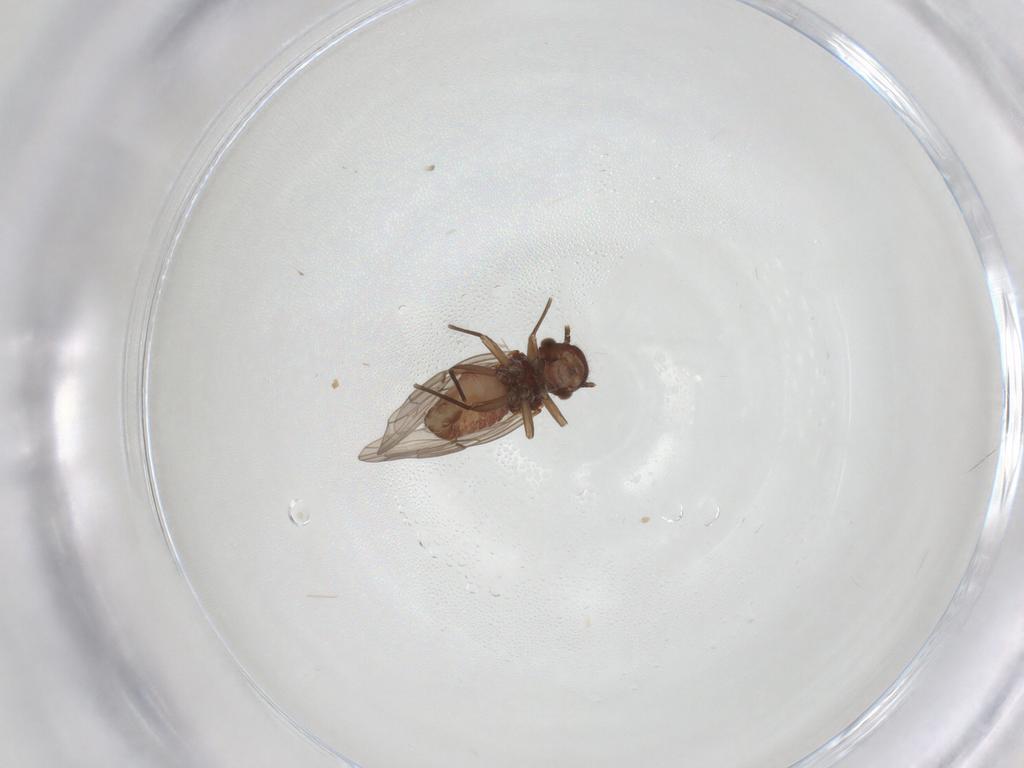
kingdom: Animalia
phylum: Arthropoda
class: Insecta
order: Psocodea
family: Ectopsocidae
